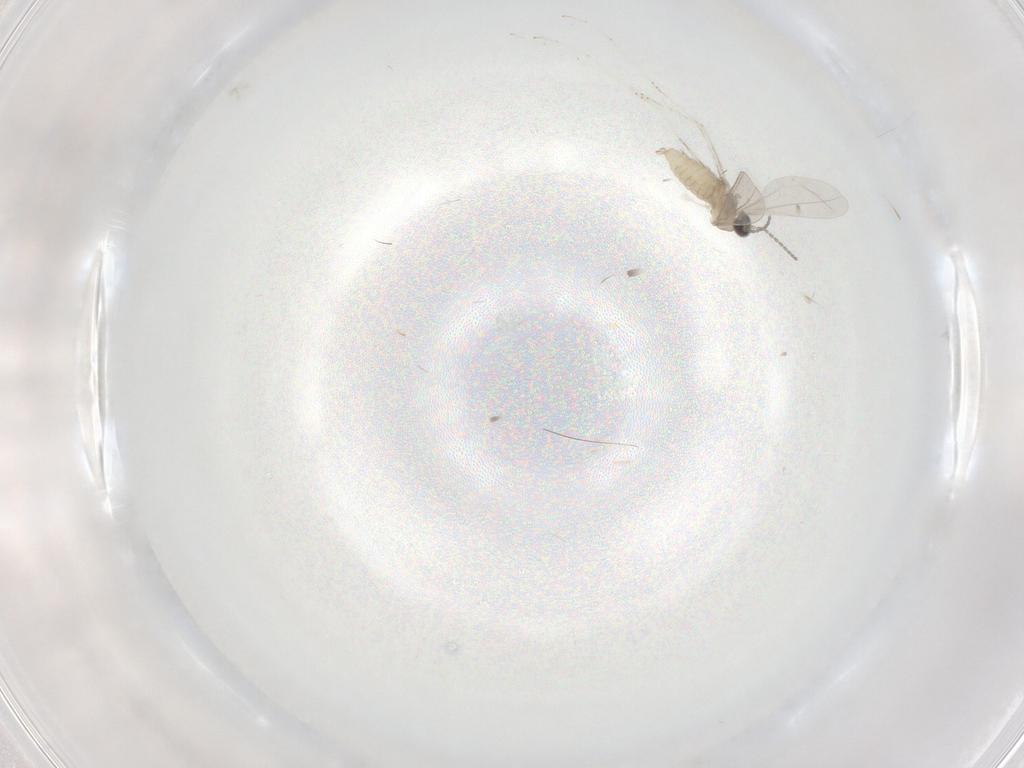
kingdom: Animalia
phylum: Arthropoda
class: Insecta
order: Diptera
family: Cecidomyiidae
